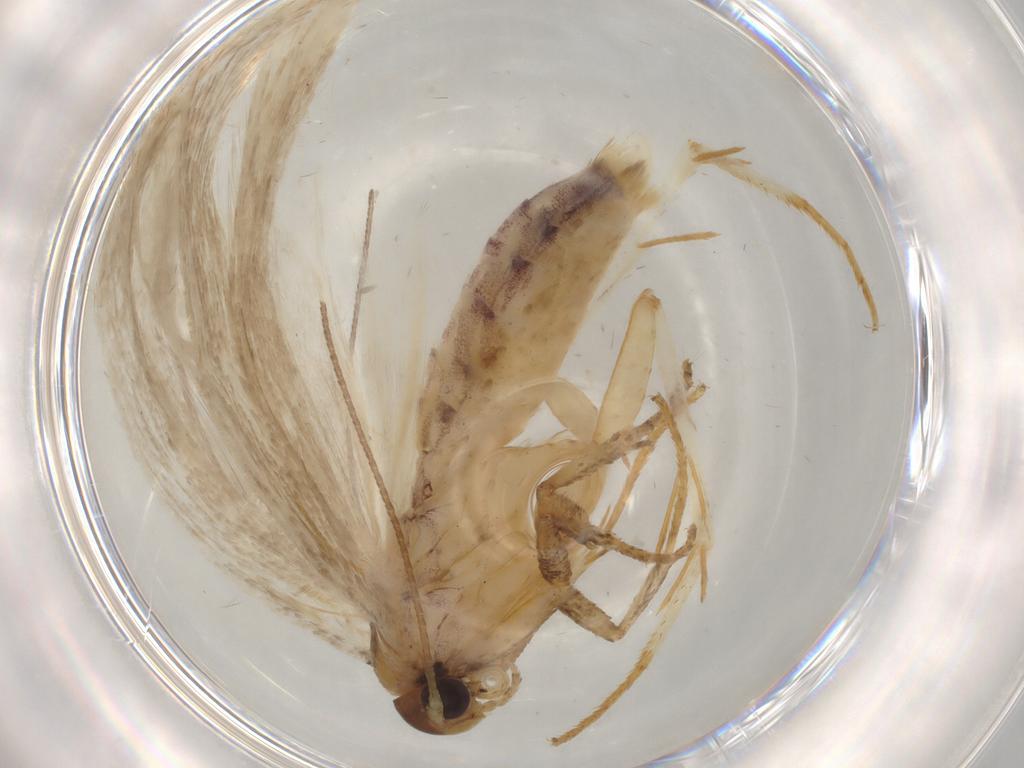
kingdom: Animalia
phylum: Arthropoda
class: Insecta
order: Lepidoptera
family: Gelechiidae
